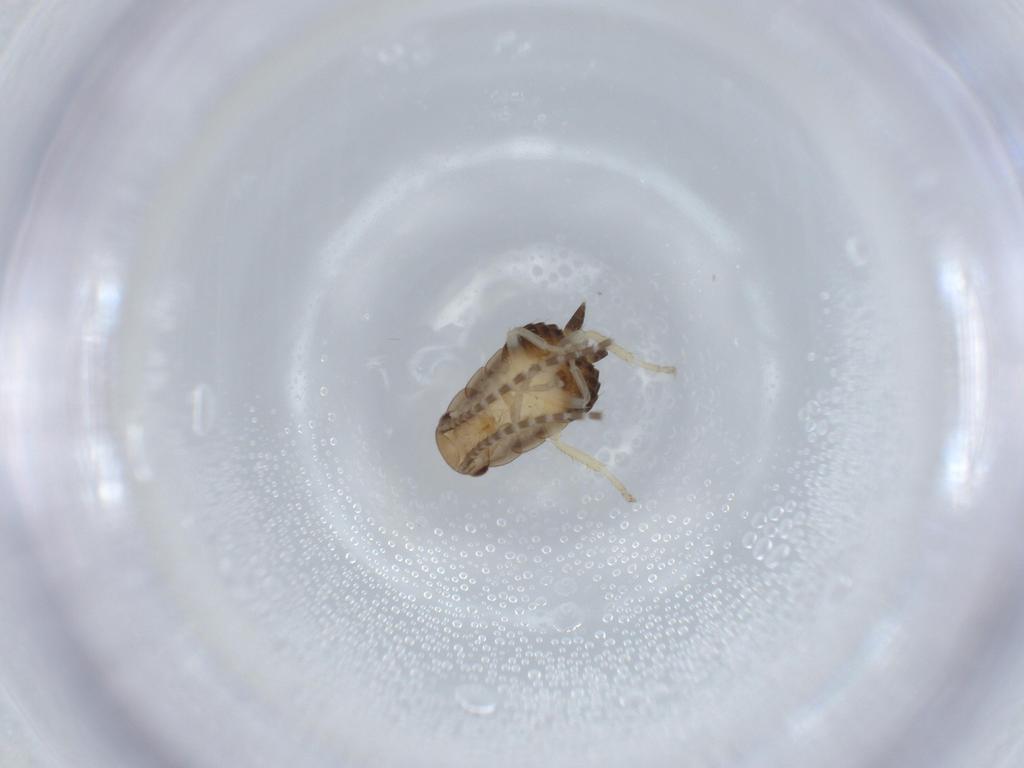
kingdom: Animalia
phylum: Arthropoda
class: Insecta
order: Blattodea
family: Ectobiidae
